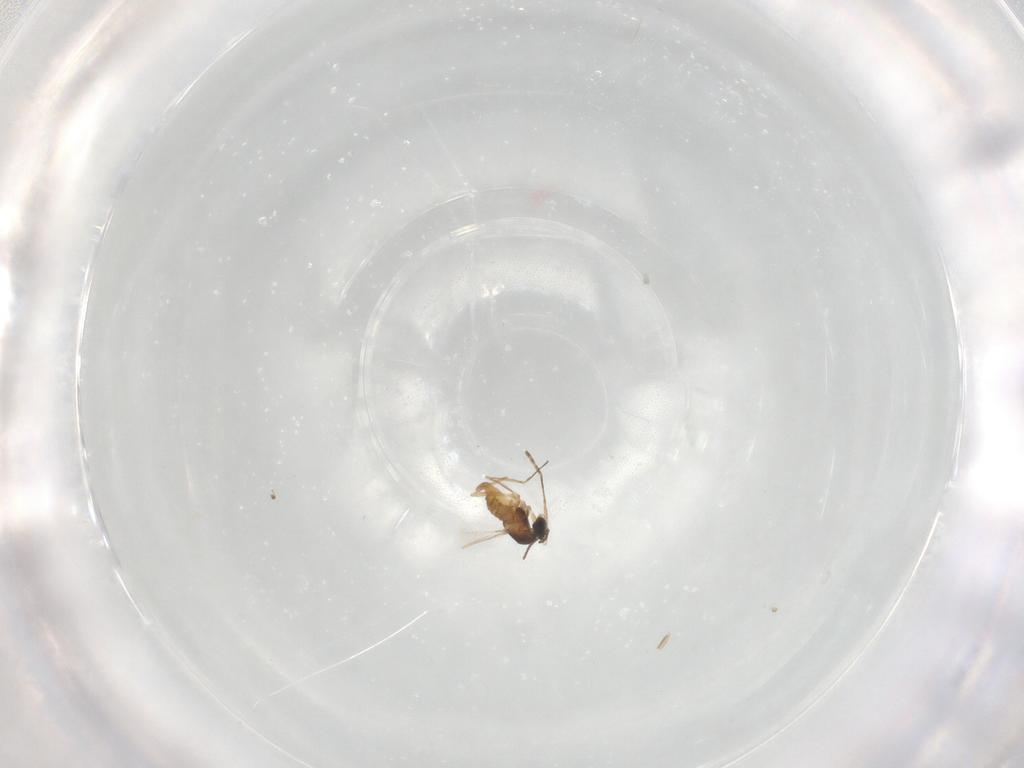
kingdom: Animalia
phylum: Arthropoda
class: Insecta
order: Diptera
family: Cecidomyiidae
